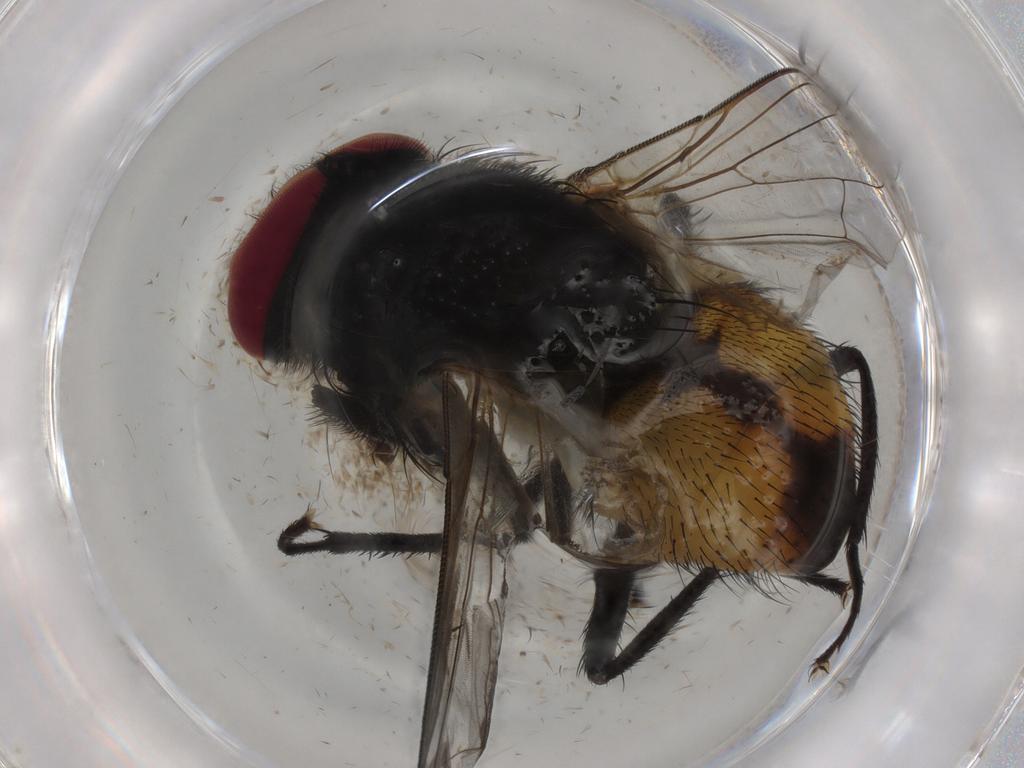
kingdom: Animalia
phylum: Arthropoda
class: Insecta
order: Diptera
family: Muscidae
